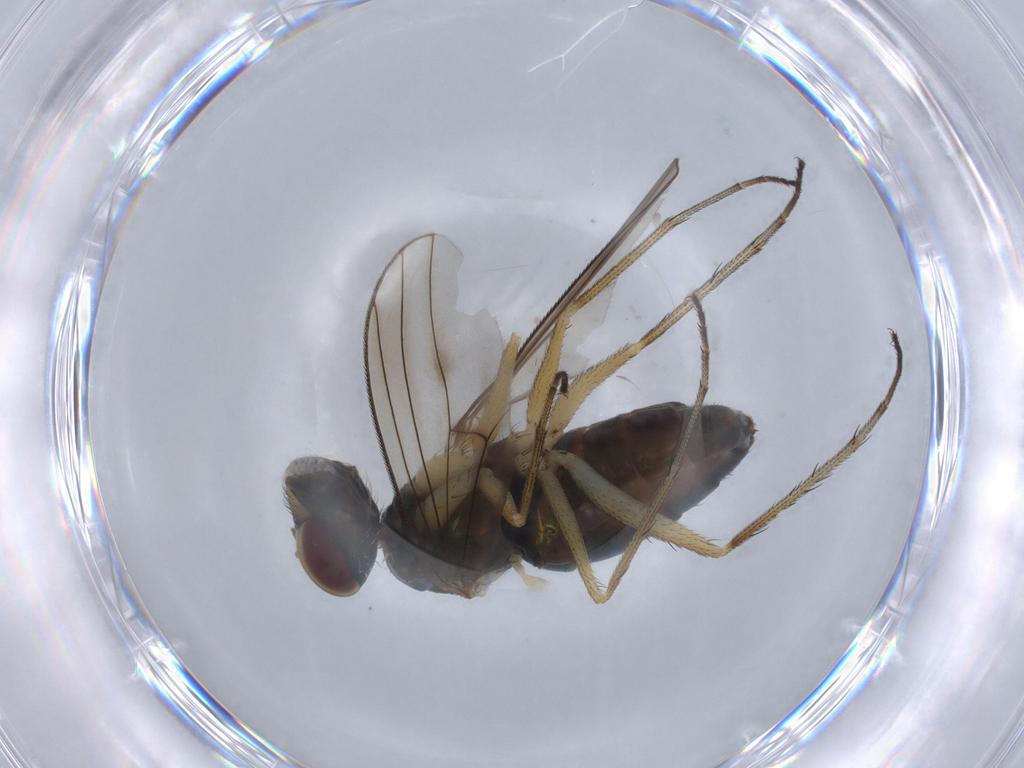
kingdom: Animalia
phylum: Arthropoda
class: Insecta
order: Diptera
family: Dolichopodidae
